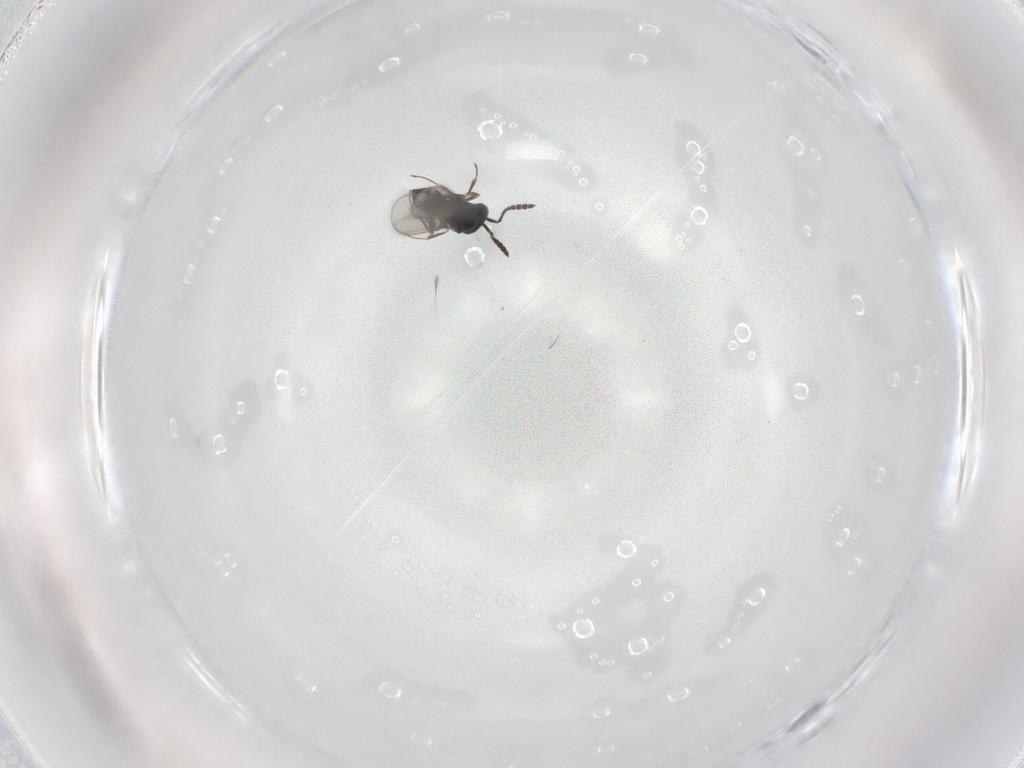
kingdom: Animalia
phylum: Arthropoda
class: Insecta
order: Hymenoptera
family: Scelionidae
